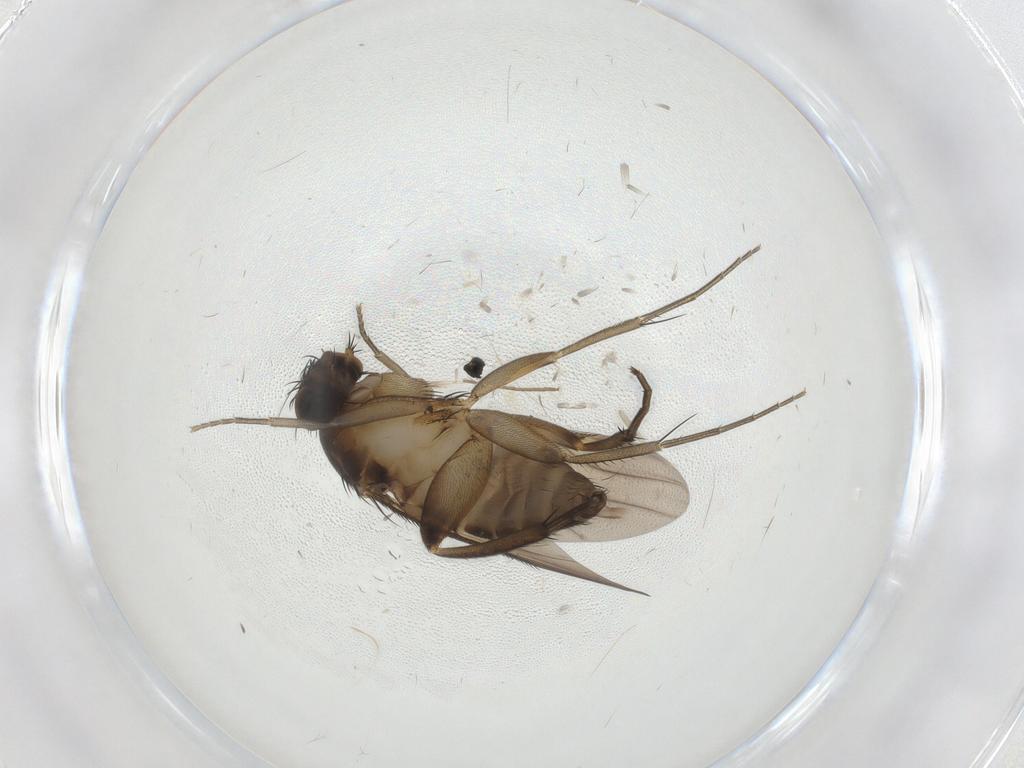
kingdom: Animalia
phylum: Arthropoda
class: Insecta
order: Diptera
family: Phoridae
